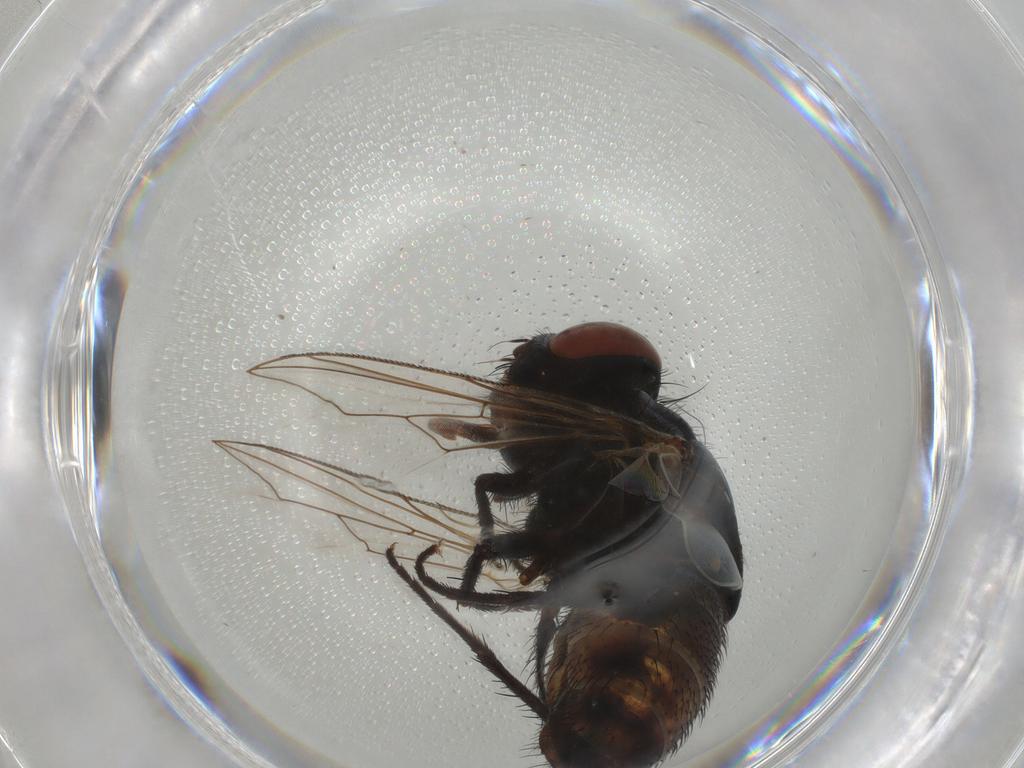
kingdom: Animalia
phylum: Arthropoda
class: Insecta
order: Diptera
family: Sarcophagidae
